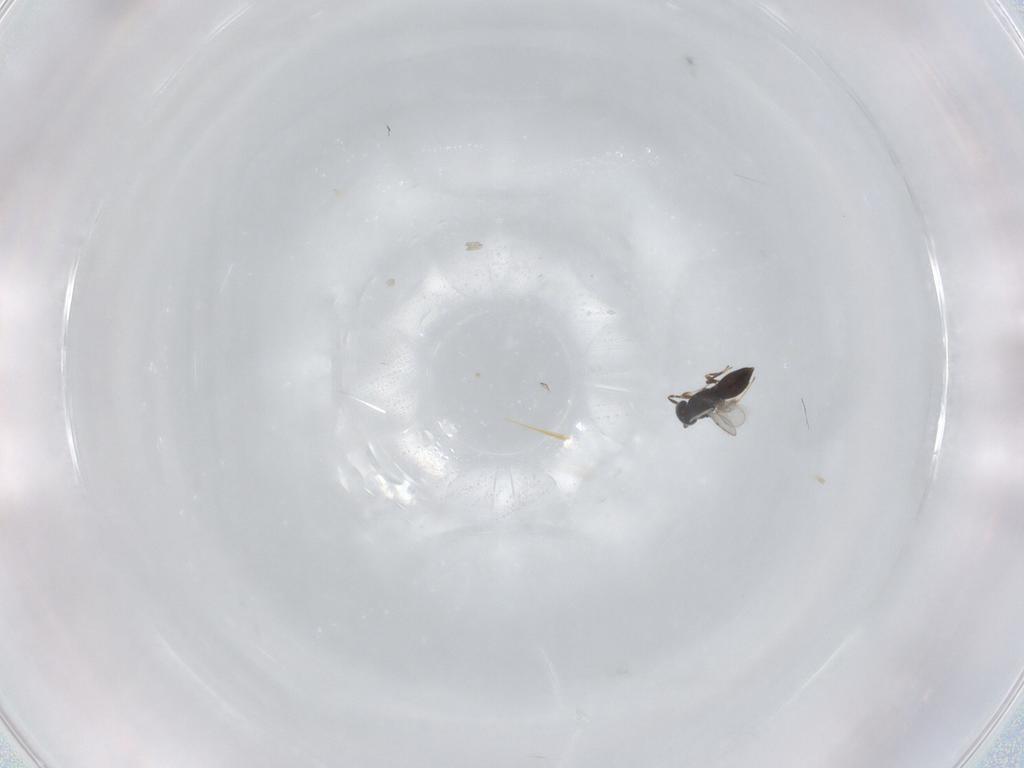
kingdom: Animalia
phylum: Arthropoda
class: Insecta
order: Hymenoptera
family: Scelionidae
